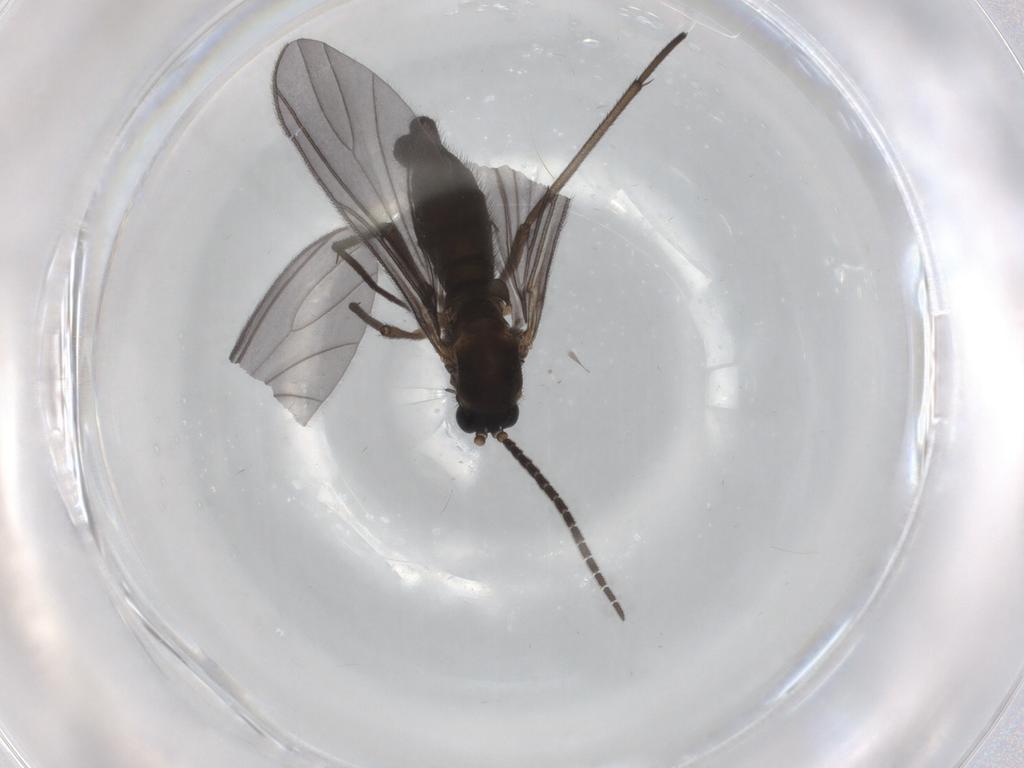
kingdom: Animalia
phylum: Arthropoda
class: Insecta
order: Diptera
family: Sciaridae
